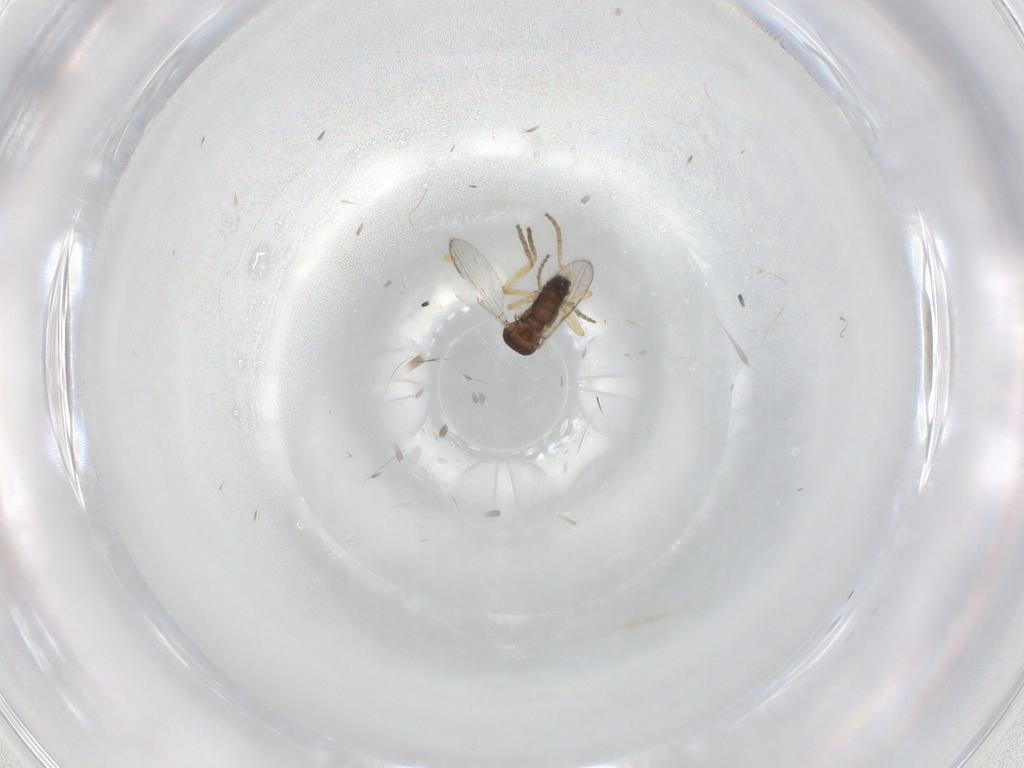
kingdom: Animalia
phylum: Arthropoda
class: Insecta
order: Diptera
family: Ceratopogonidae
